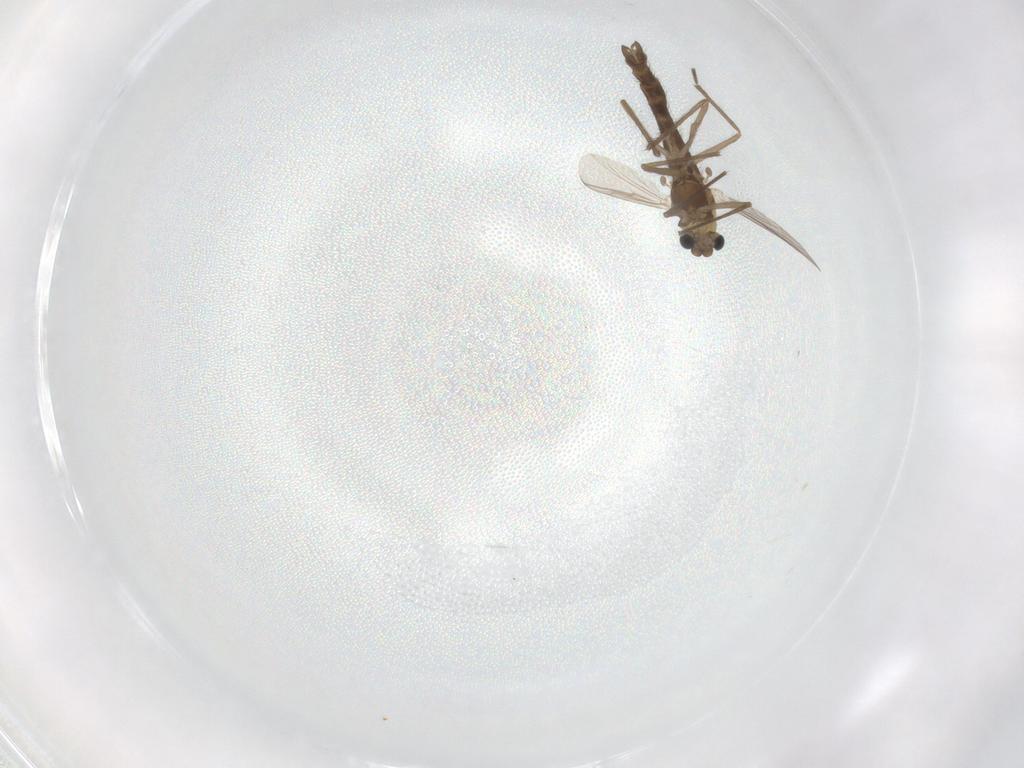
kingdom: Animalia
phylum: Arthropoda
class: Insecta
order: Diptera
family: Chironomidae
